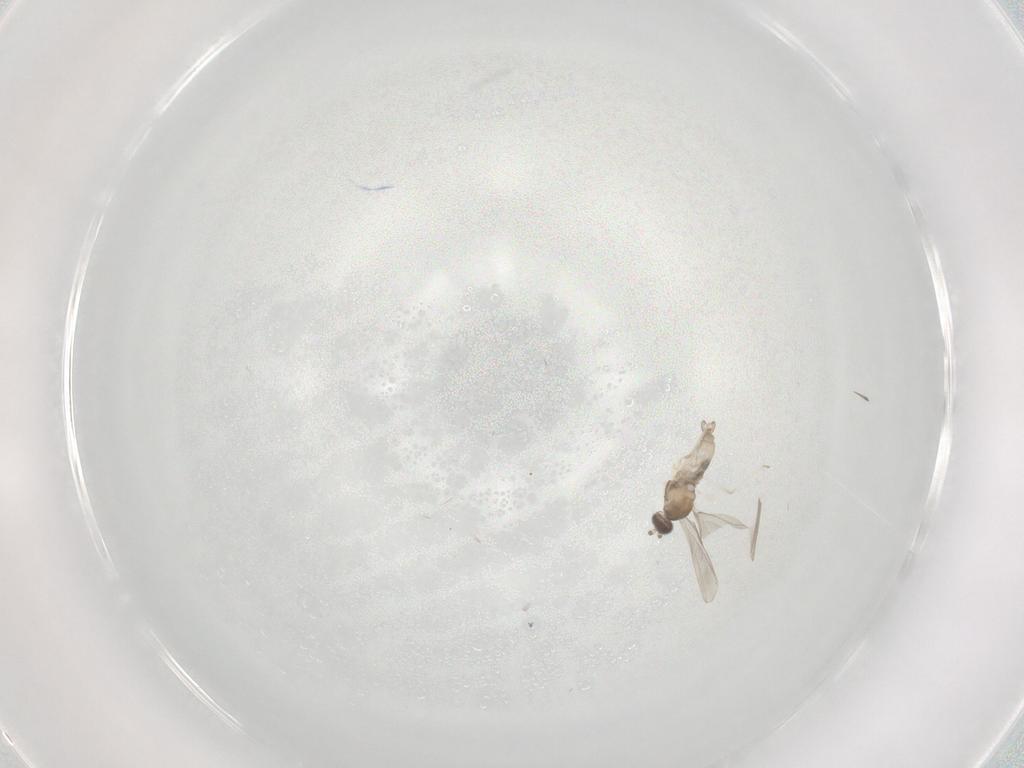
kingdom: Animalia
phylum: Arthropoda
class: Insecta
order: Diptera
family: Cecidomyiidae
